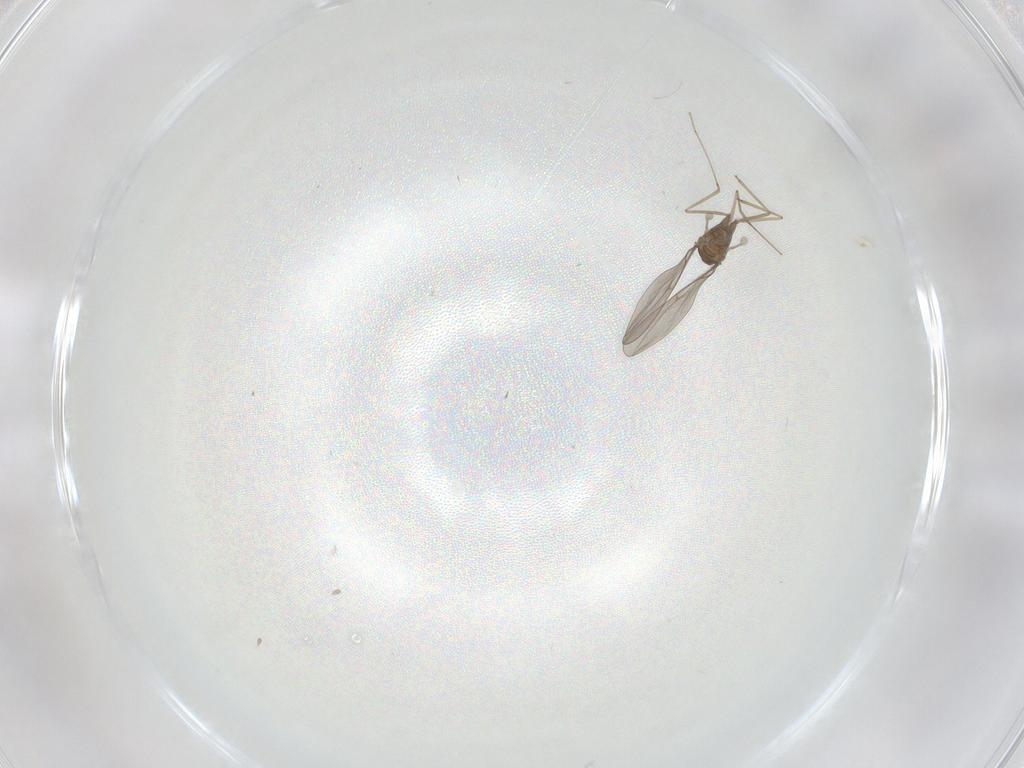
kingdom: Animalia
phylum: Arthropoda
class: Insecta
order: Diptera
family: Cecidomyiidae
